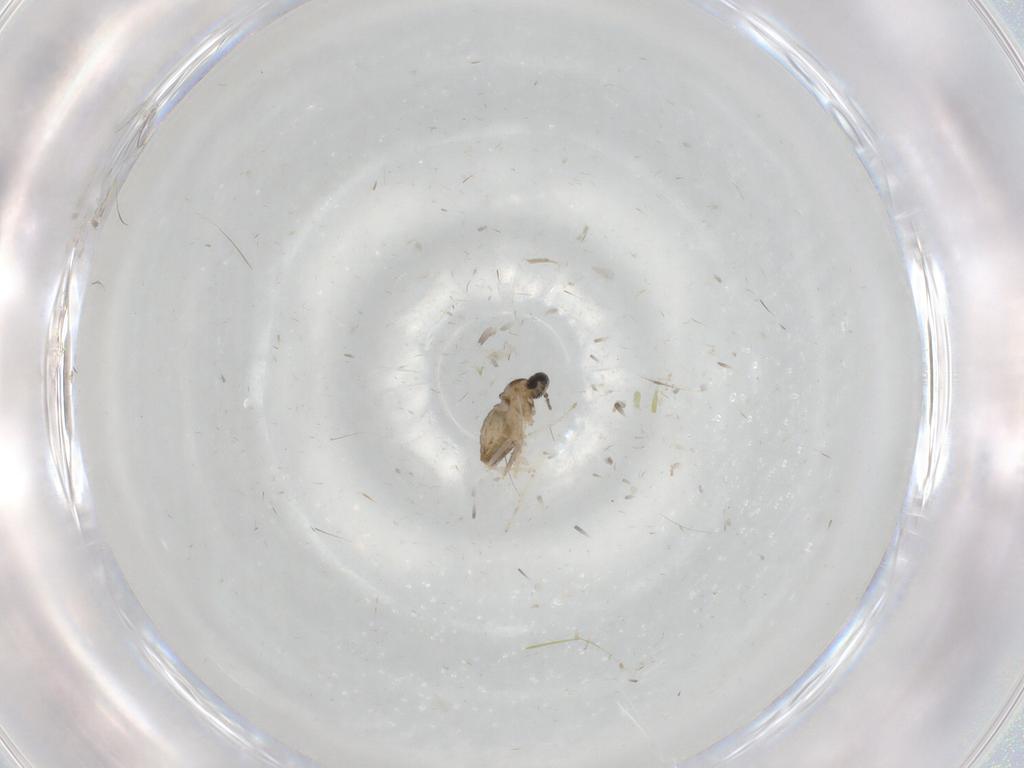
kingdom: Animalia
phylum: Arthropoda
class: Insecta
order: Diptera
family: Cecidomyiidae
